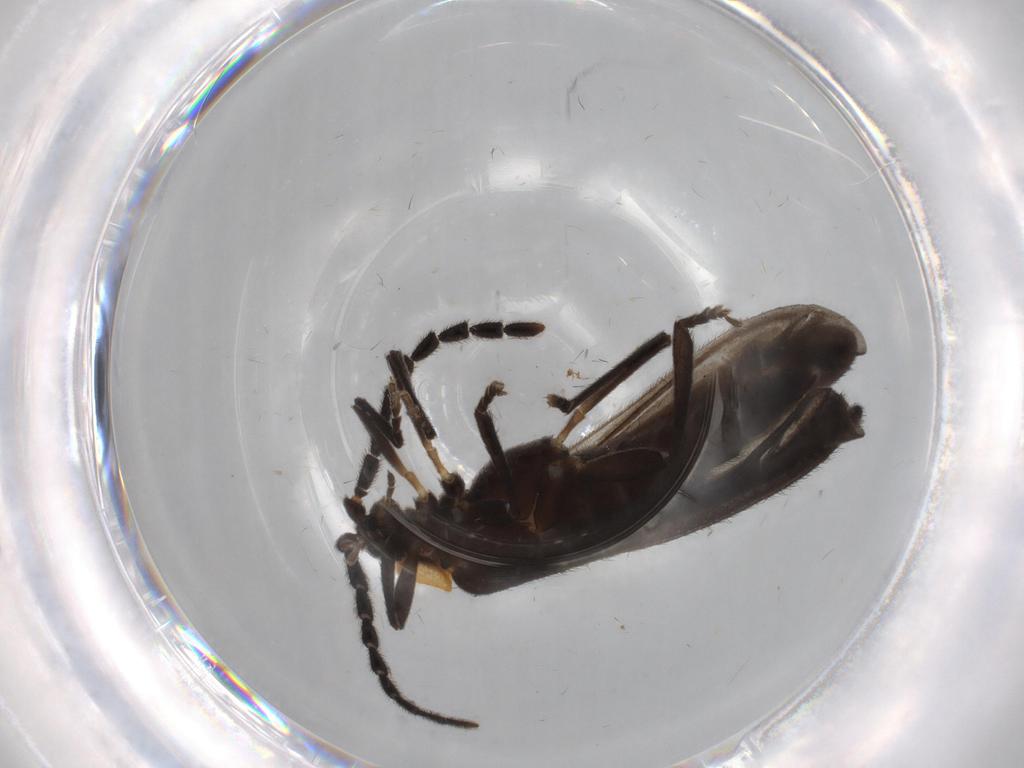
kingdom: Animalia
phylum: Arthropoda
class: Insecta
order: Coleoptera
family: Lycidae
